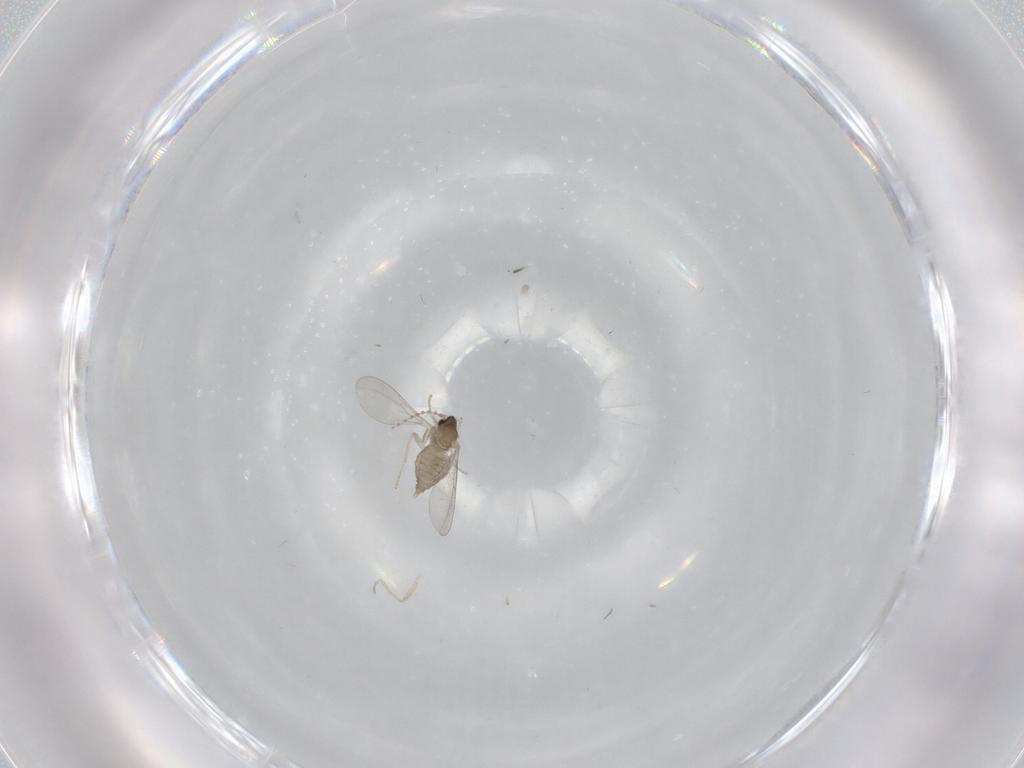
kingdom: Animalia
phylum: Arthropoda
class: Insecta
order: Diptera
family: Cecidomyiidae
